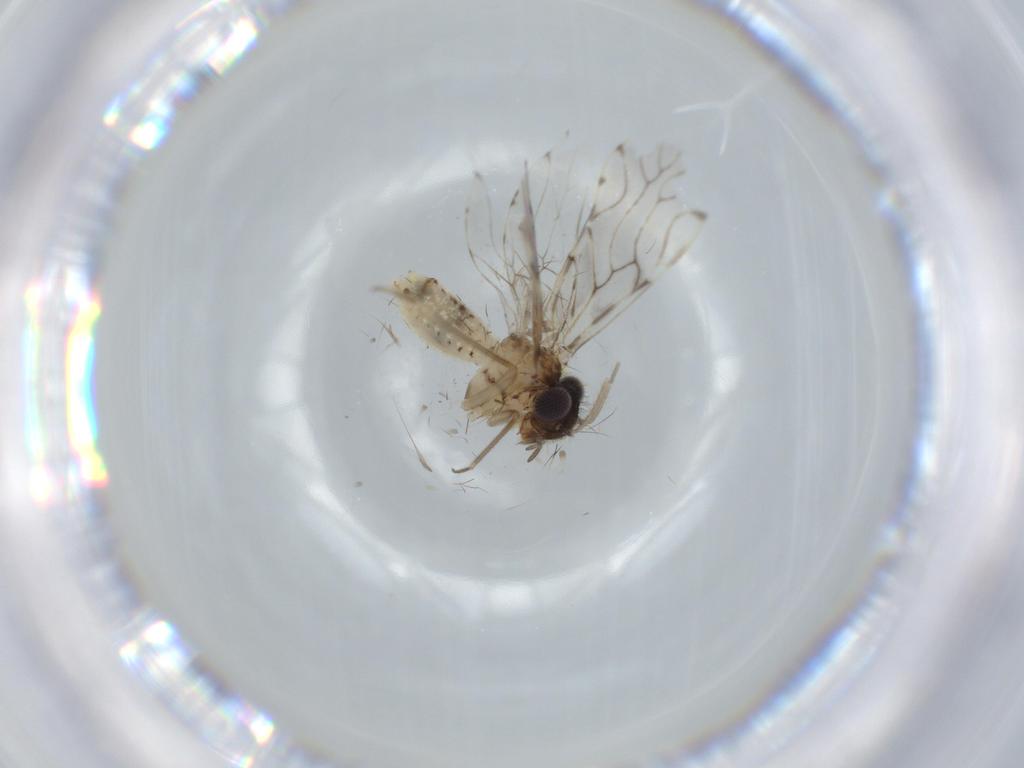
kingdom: Animalia
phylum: Arthropoda
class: Insecta
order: Psocodea
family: Epipsocidae
